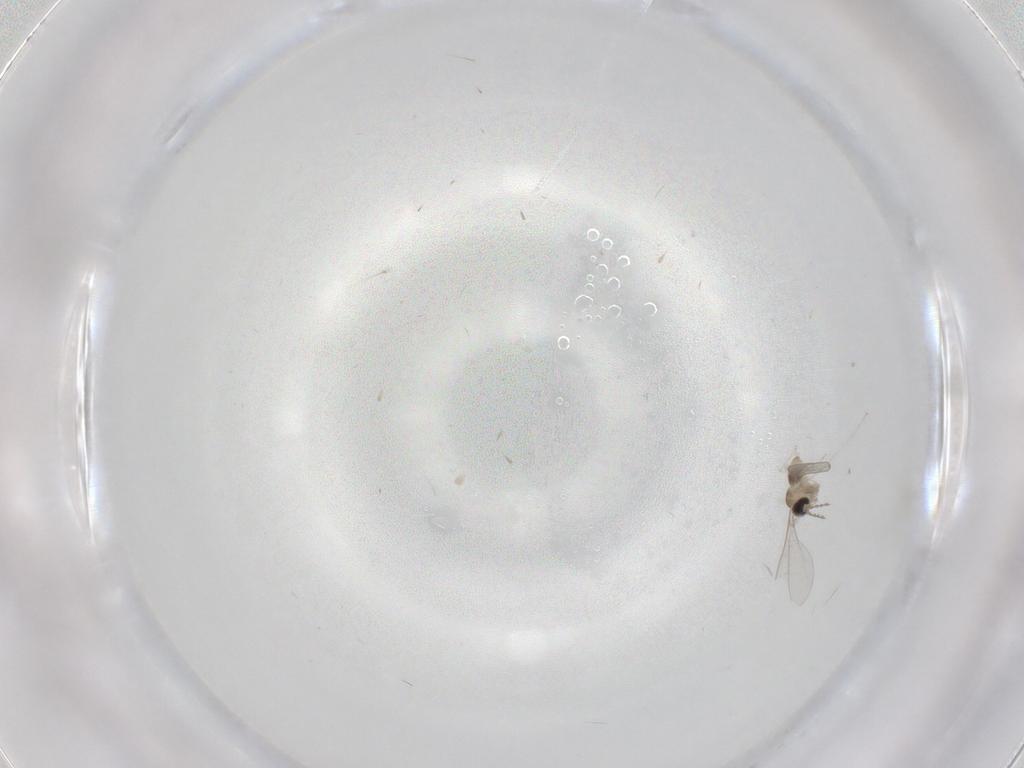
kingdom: Animalia
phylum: Arthropoda
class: Insecta
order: Diptera
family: Cecidomyiidae
